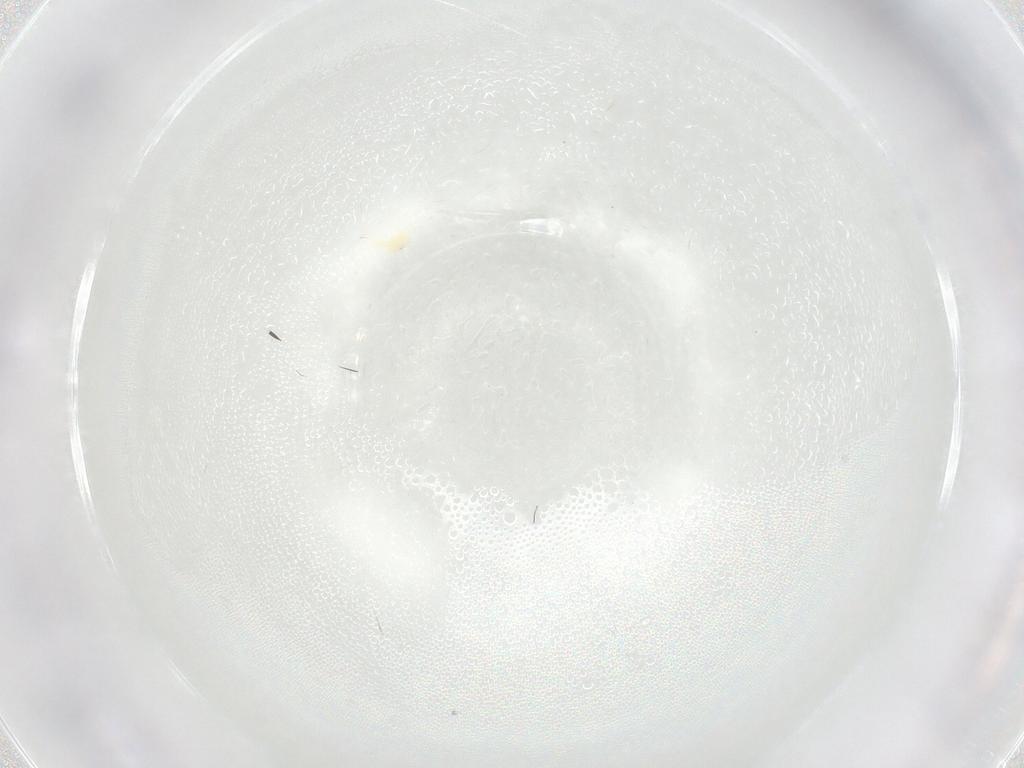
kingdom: Animalia
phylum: Arthropoda
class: Arachnida
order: Trombidiformes
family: Tetranychidae
